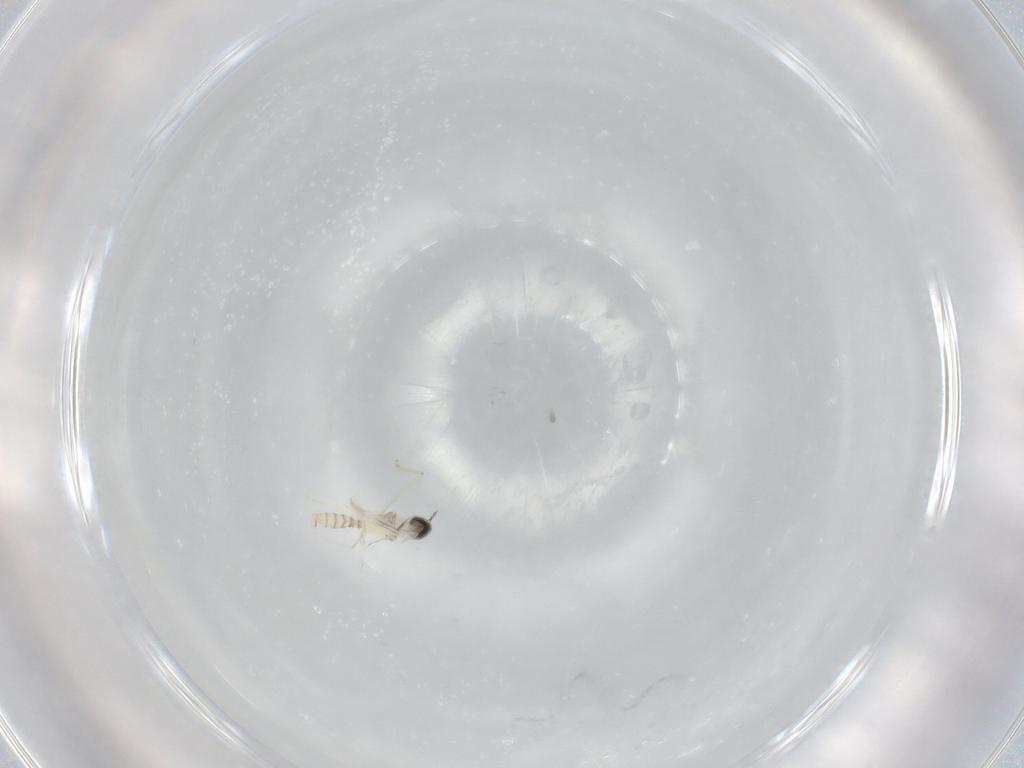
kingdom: Animalia
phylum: Arthropoda
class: Insecta
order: Diptera
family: Cecidomyiidae
